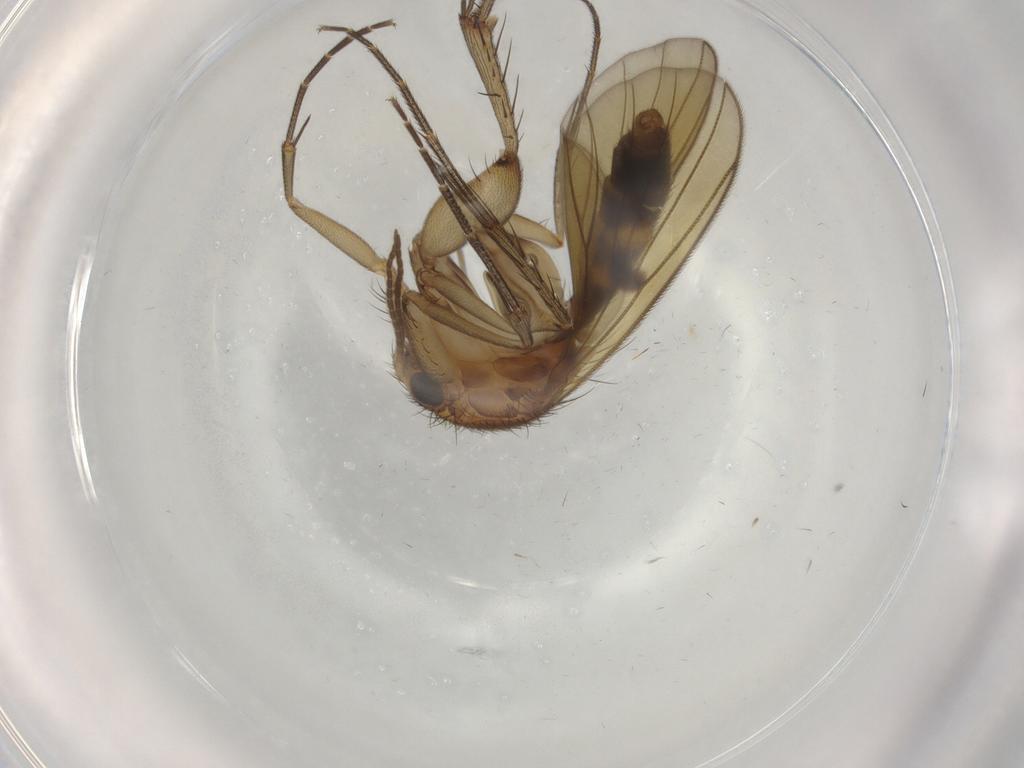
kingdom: Animalia
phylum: Arthropoda
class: Insecta
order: Diptera
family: Mycetophilidae
